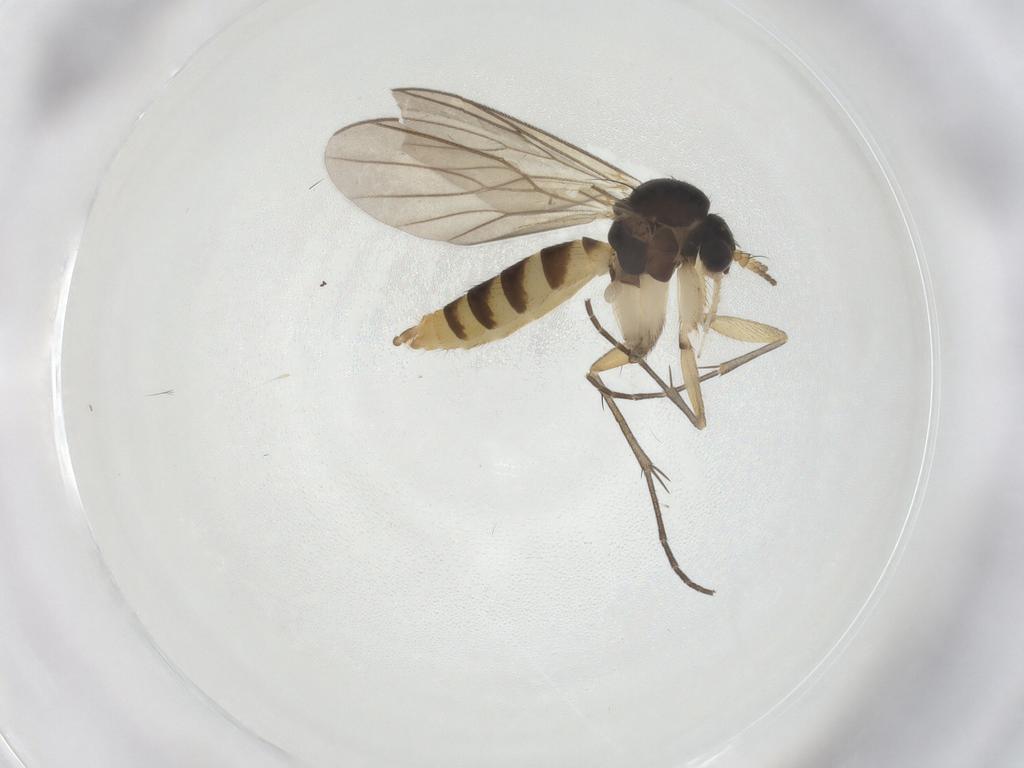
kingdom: Animalia
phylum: Arthropoda
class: Insecta
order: Diptera
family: Mycetophilidae
